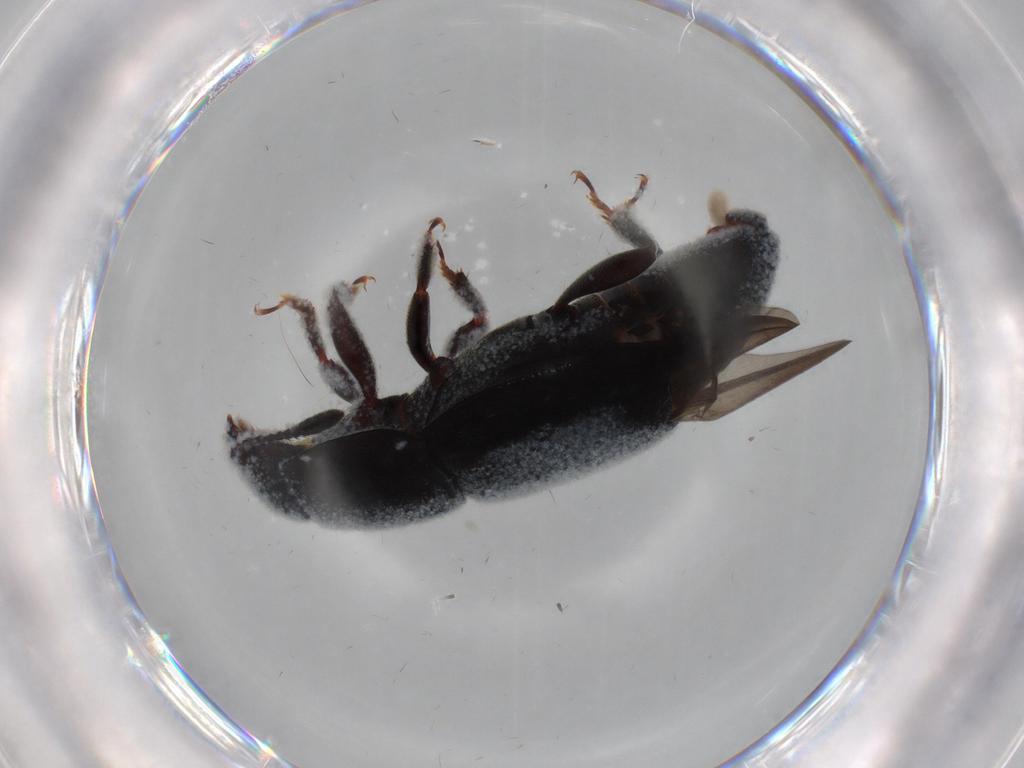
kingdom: Animalia
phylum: Arthropoda
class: Insecta
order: Coleoptera
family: Nitidulidae
